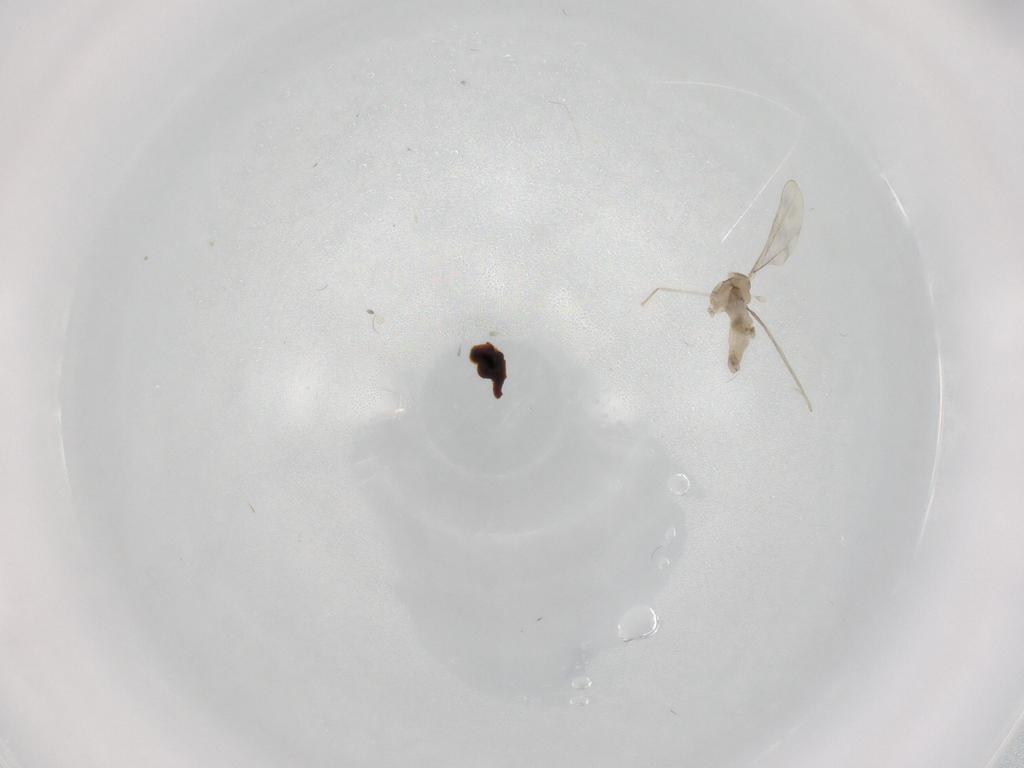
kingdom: Animalia
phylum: Arthropoda
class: Insecta
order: Diptera
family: Cecidomyiidae
